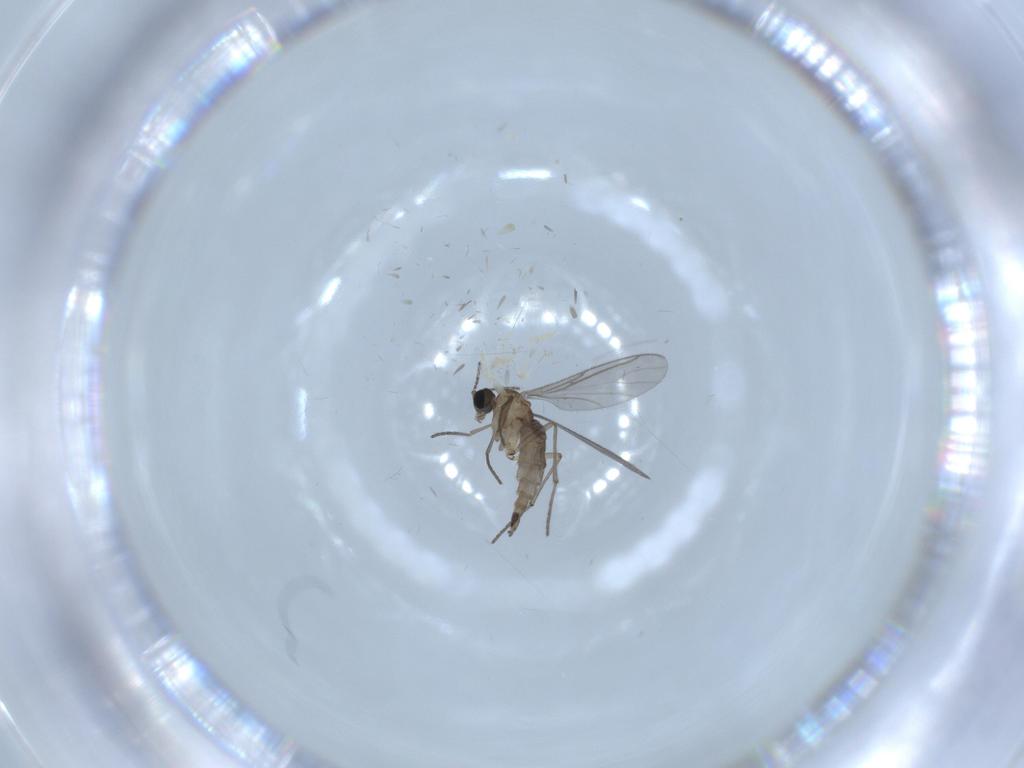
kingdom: Animalia
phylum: Arthropoda
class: Insecta
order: Diptera
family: Sciaridae
